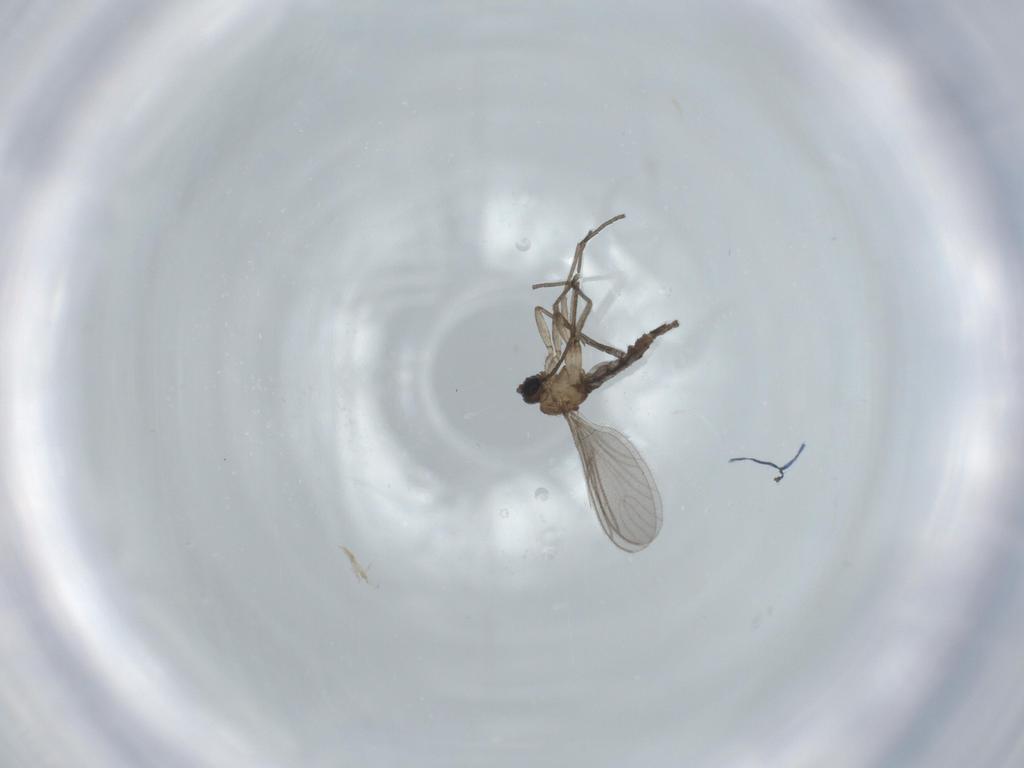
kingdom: Animalia
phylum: Arthropoda
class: Insecta
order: Diptera
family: Sciaridae
